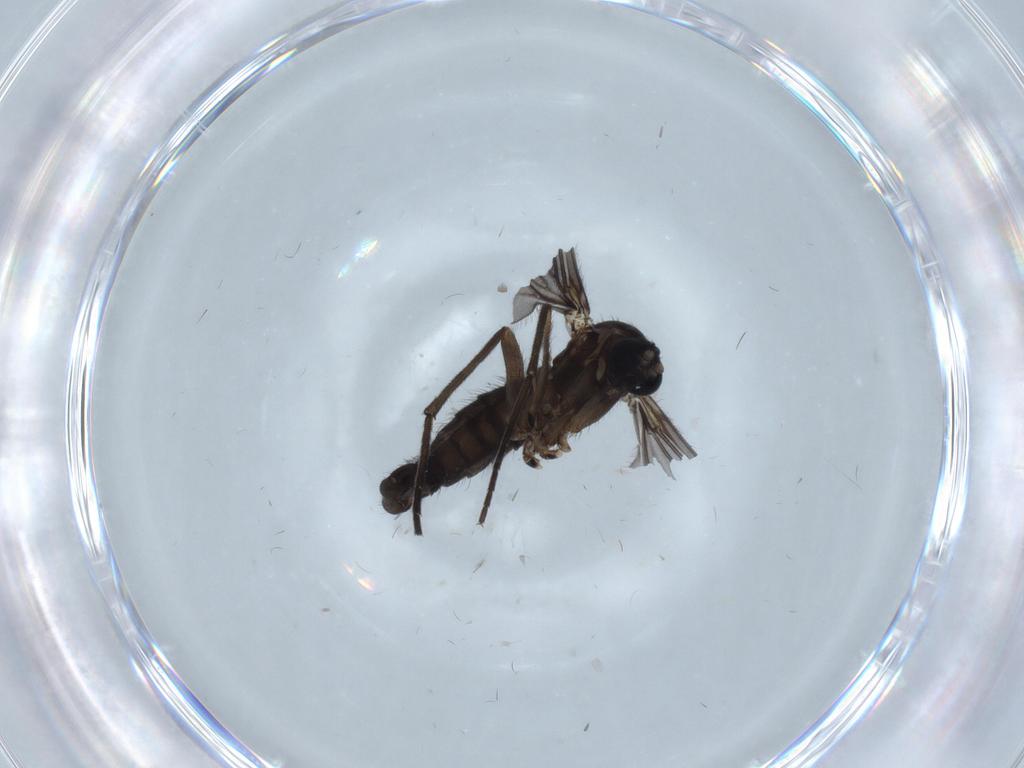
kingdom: Animalia
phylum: Arthropoda
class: Insecta
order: Diptera
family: Sciaridae
